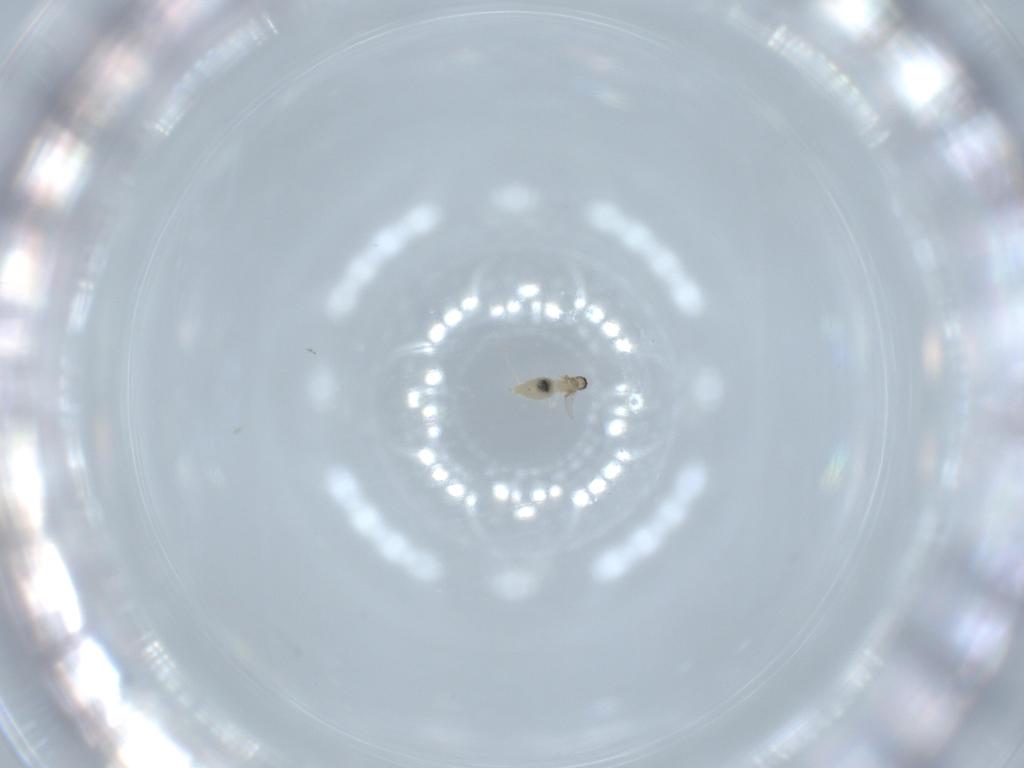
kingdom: Animalia
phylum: Arthropoda
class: Insecta
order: Diptera
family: Cecidomyiidae
